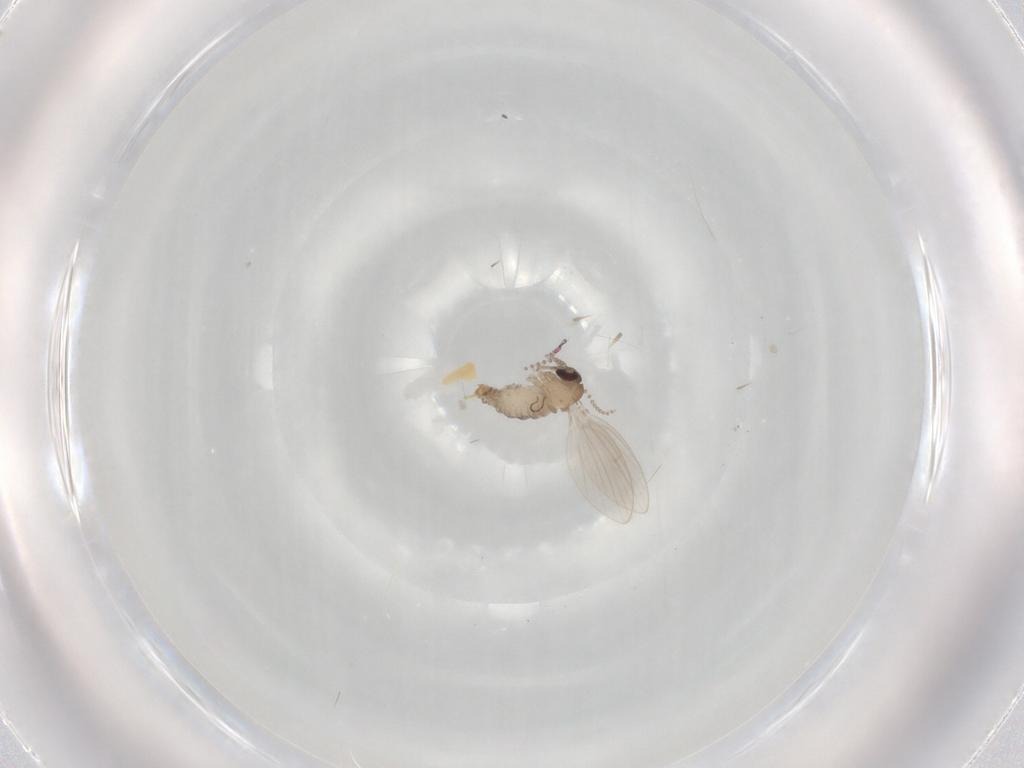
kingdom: Animalia
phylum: Arthropoda
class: Insecta
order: Diptera
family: Psychodidae
